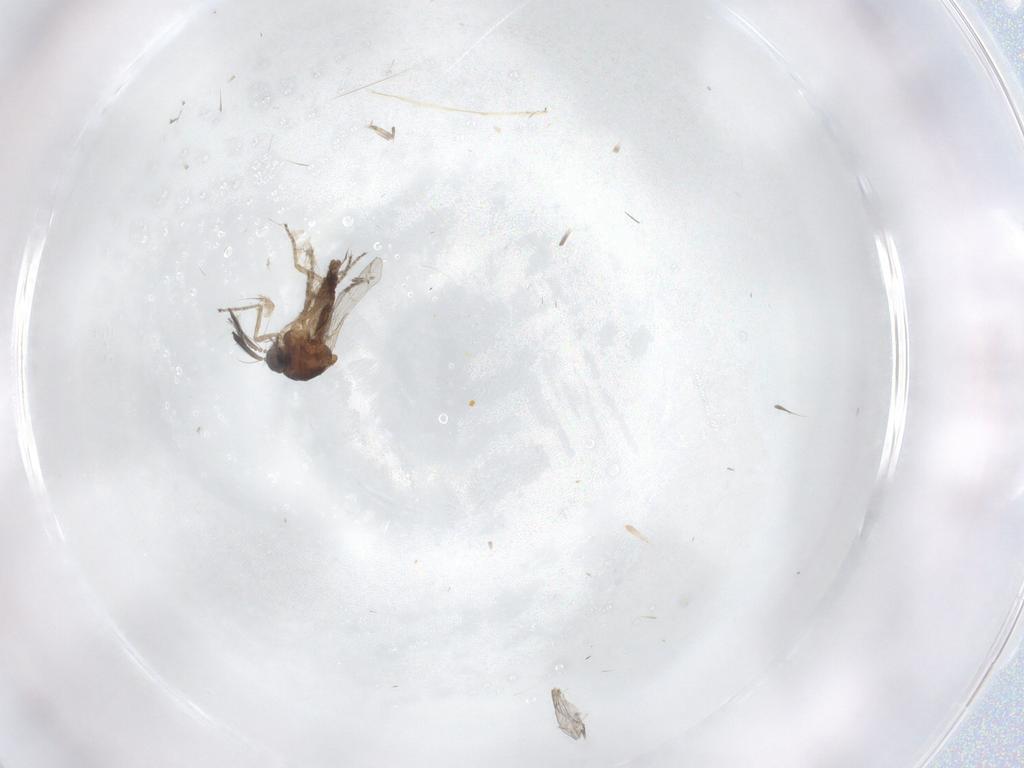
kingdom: Animalia
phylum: Arthropoda
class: Insecta
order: Diptera
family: Ceratopogonidae
